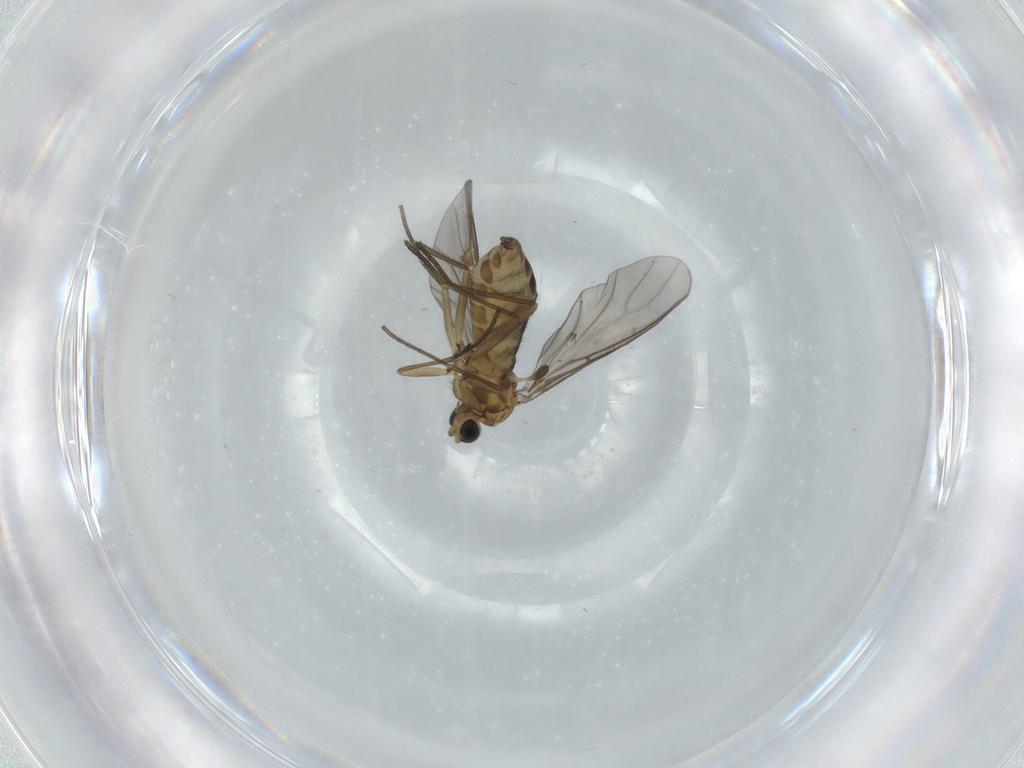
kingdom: Animalia
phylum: Arthropoda
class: Insecta
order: Diptera
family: Sciaridae
